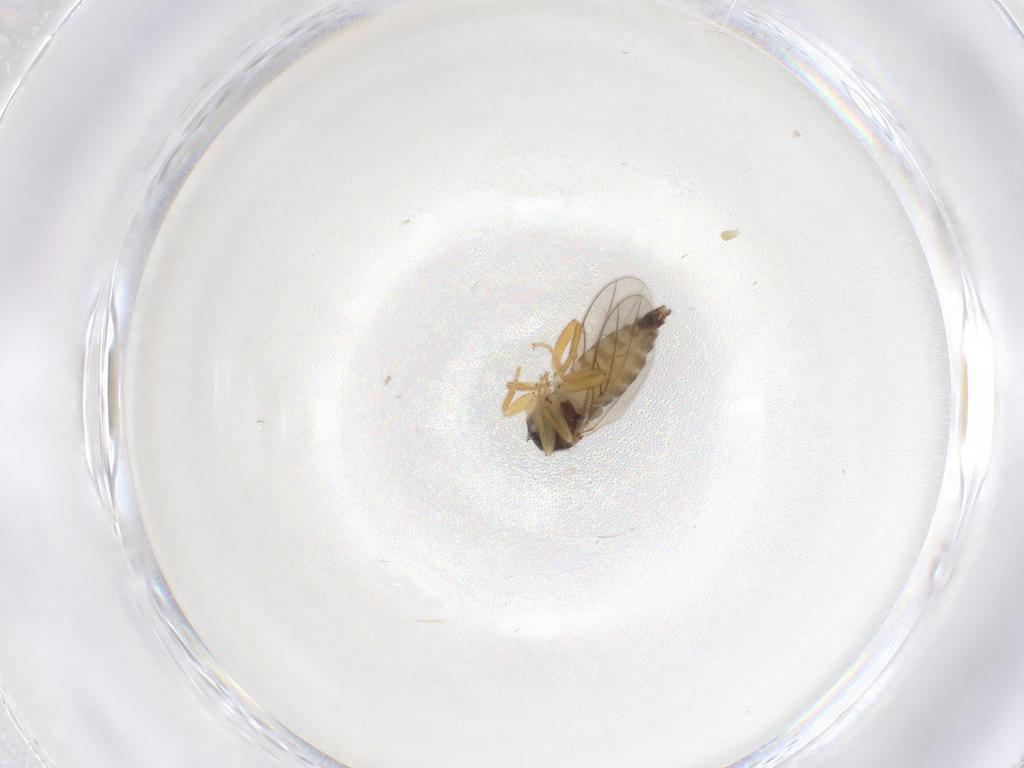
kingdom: Animalia
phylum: Arthropoda
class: Insecta
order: Diptera
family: Hybotidae
